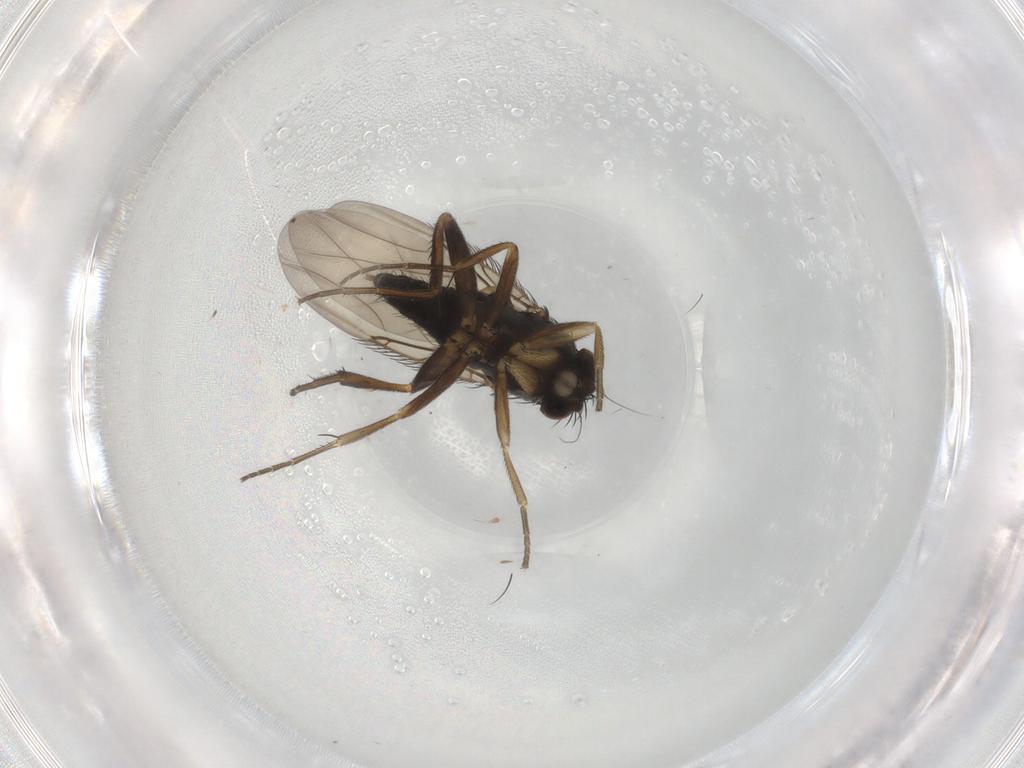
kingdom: Animalia
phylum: Arthropoda
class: Insecta
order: Diptera
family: Phoridae
